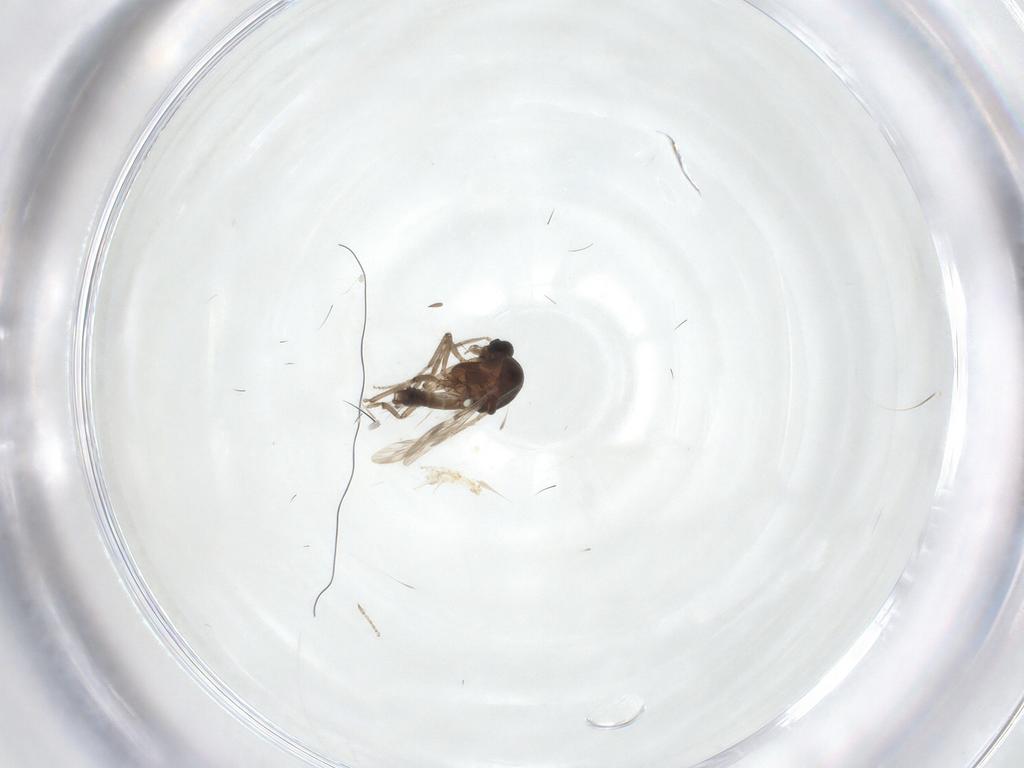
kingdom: Animalia
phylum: Arthropoda
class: Insecta
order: Diptera
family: Ceratopogonidae
